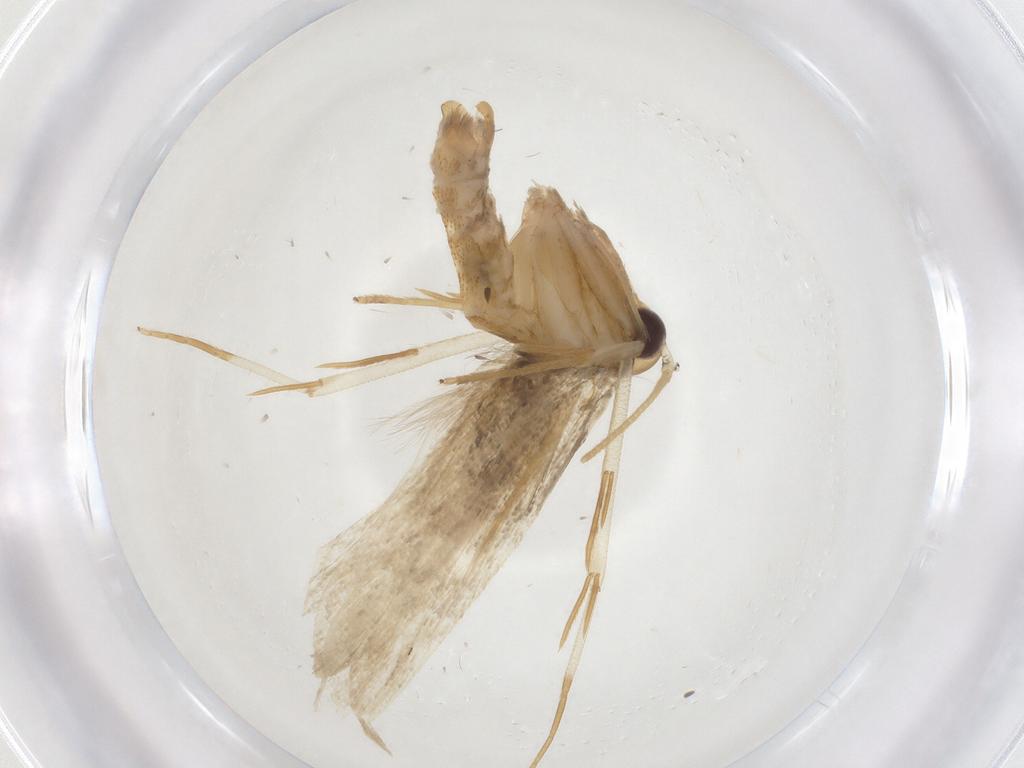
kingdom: Animalia
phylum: Arthropoda
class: Insecta
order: Lepidoptera
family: Lecithoceridae
